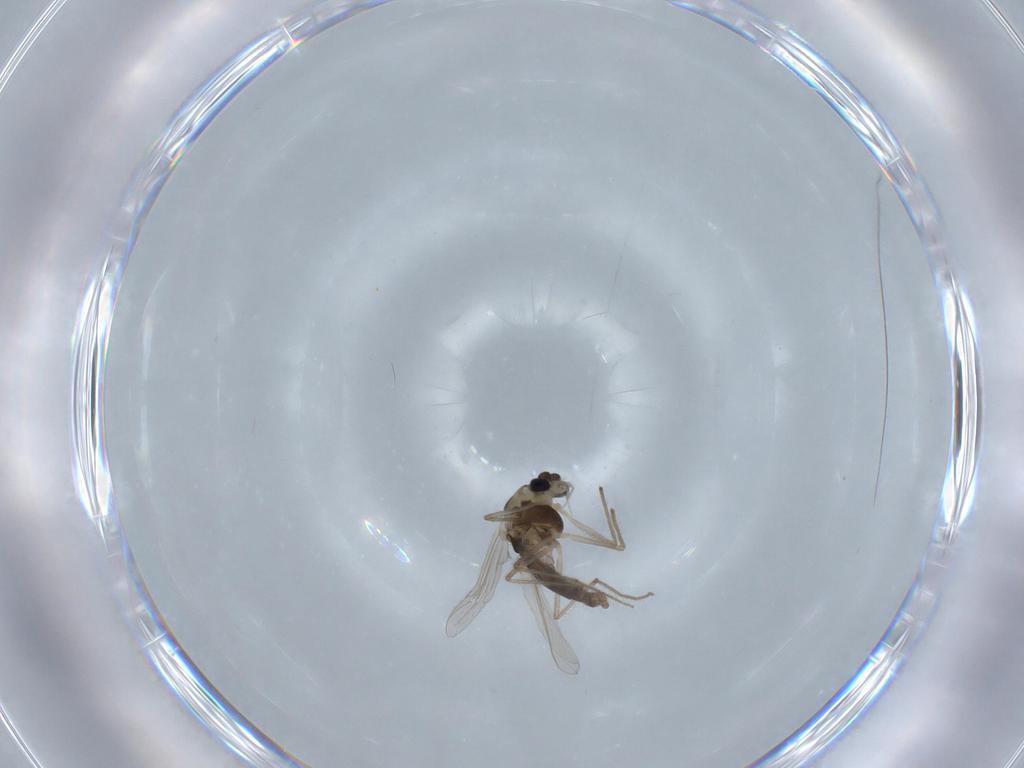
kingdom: Animalia
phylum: Arthropoda
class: Insecta
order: Diptera
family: Chironomidae
